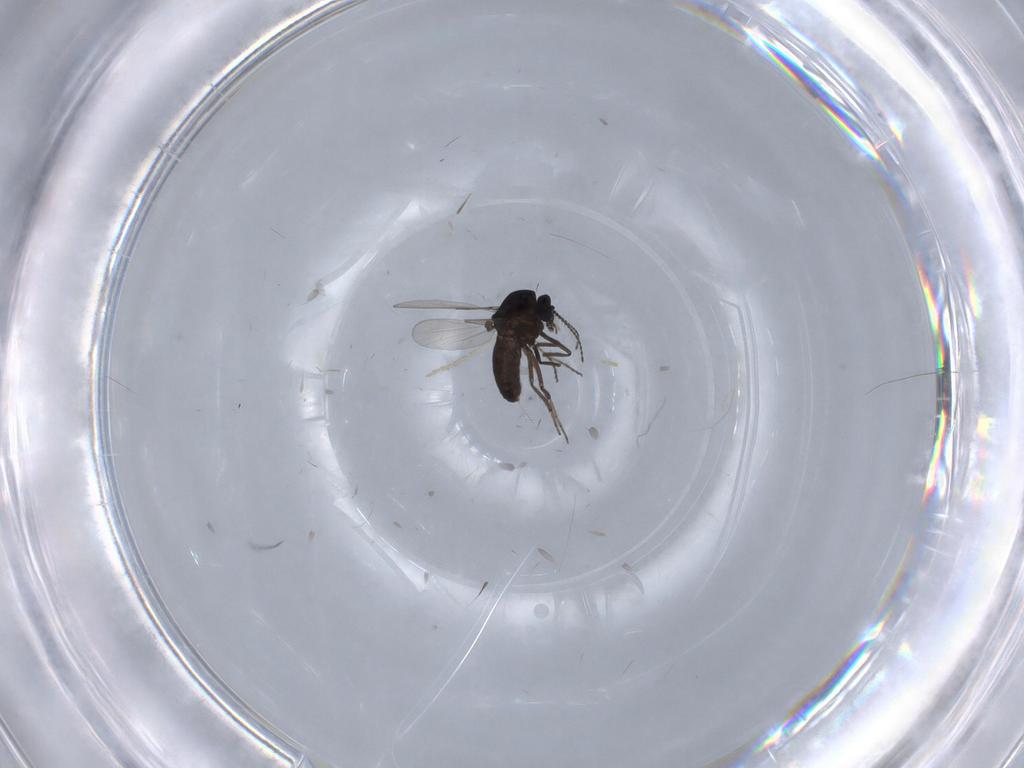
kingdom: Animalia
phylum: Arthropoda
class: Insecta
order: Diptera
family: Chironomidae
